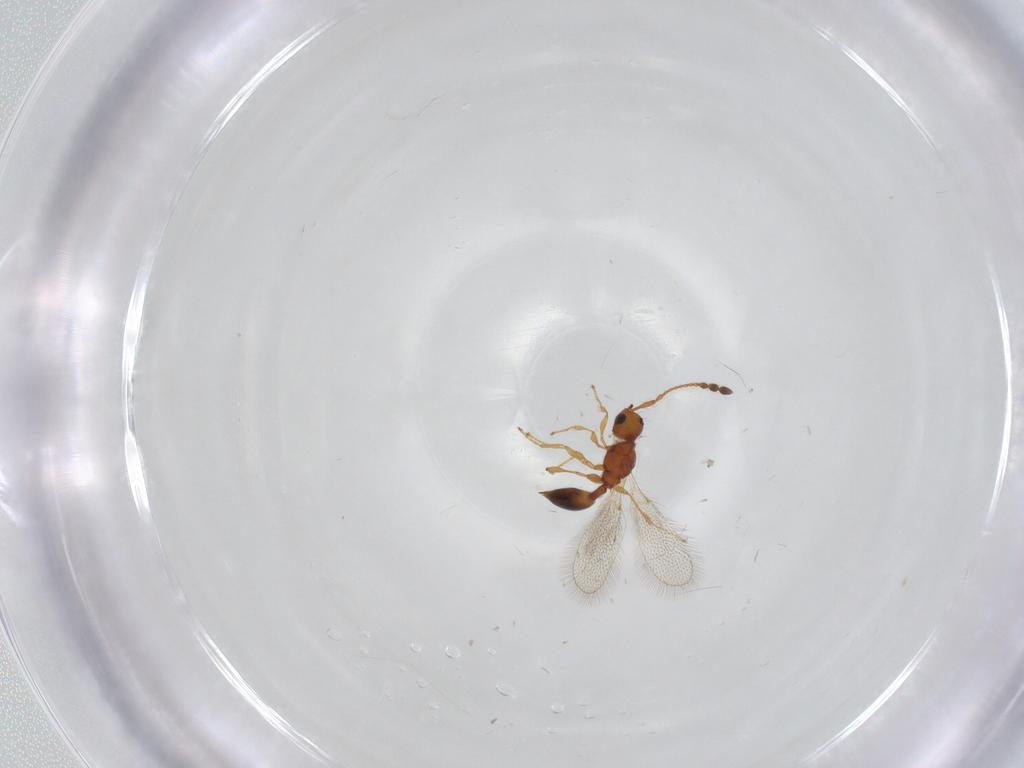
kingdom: Animalia
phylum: Arthropoda
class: Insecta
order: Hymenoptera
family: Diapriidae
